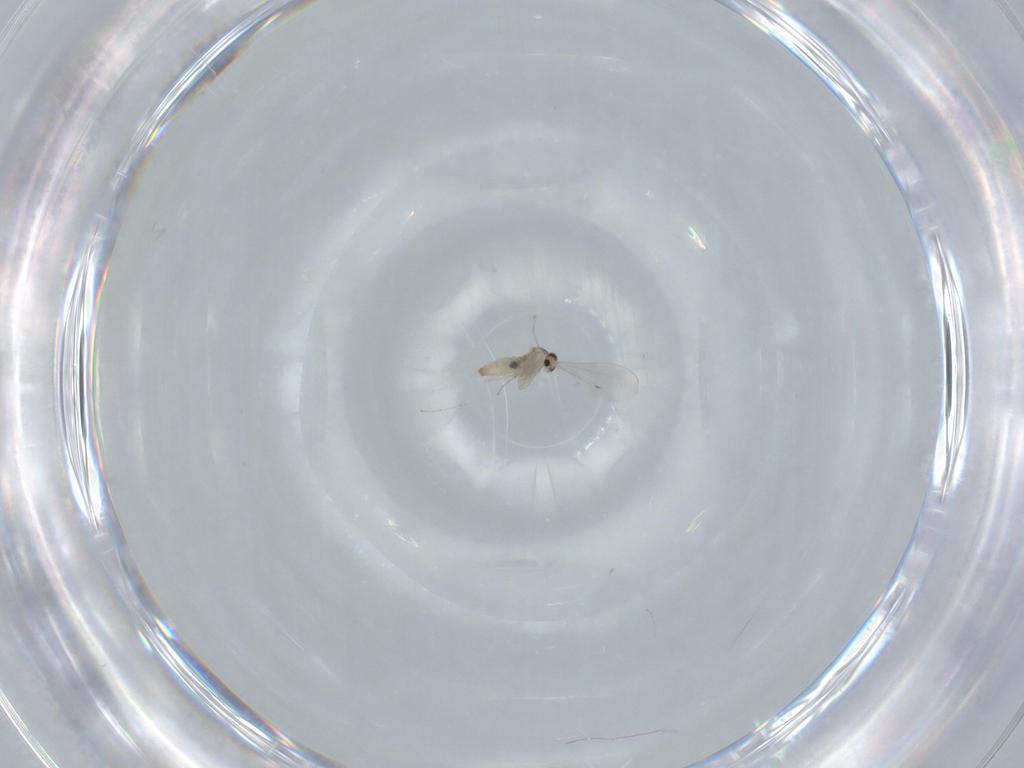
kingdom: Animalia
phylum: Arthropoda
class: Insecta
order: Diptera
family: Cecidomyiidae
